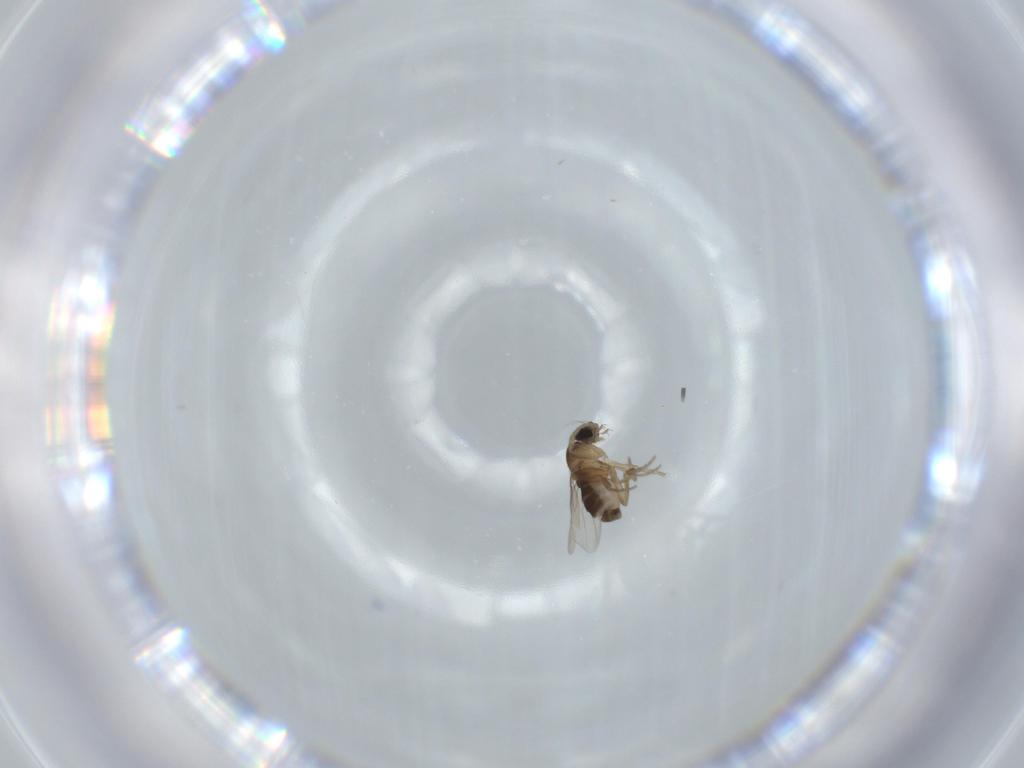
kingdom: Animalia
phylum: Arthropoda
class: Insecta
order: Diptera
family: Phoridae
